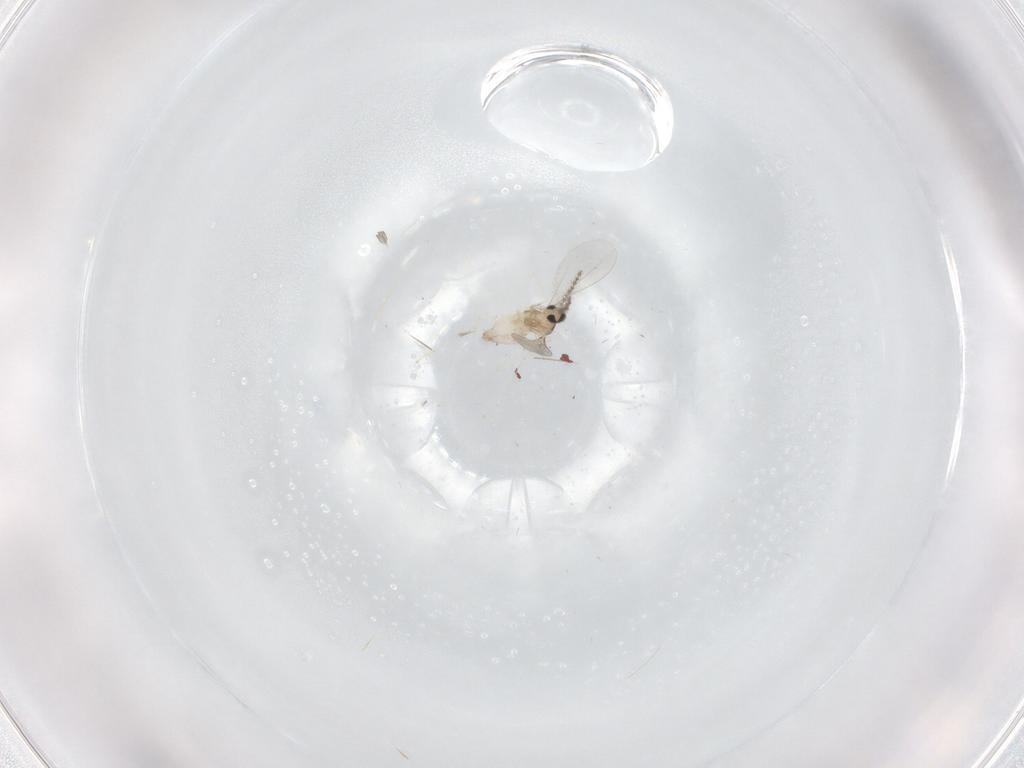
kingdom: Animalia
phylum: Arthropoda
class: Insecta
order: Diptera
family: Cecidomyiidae
